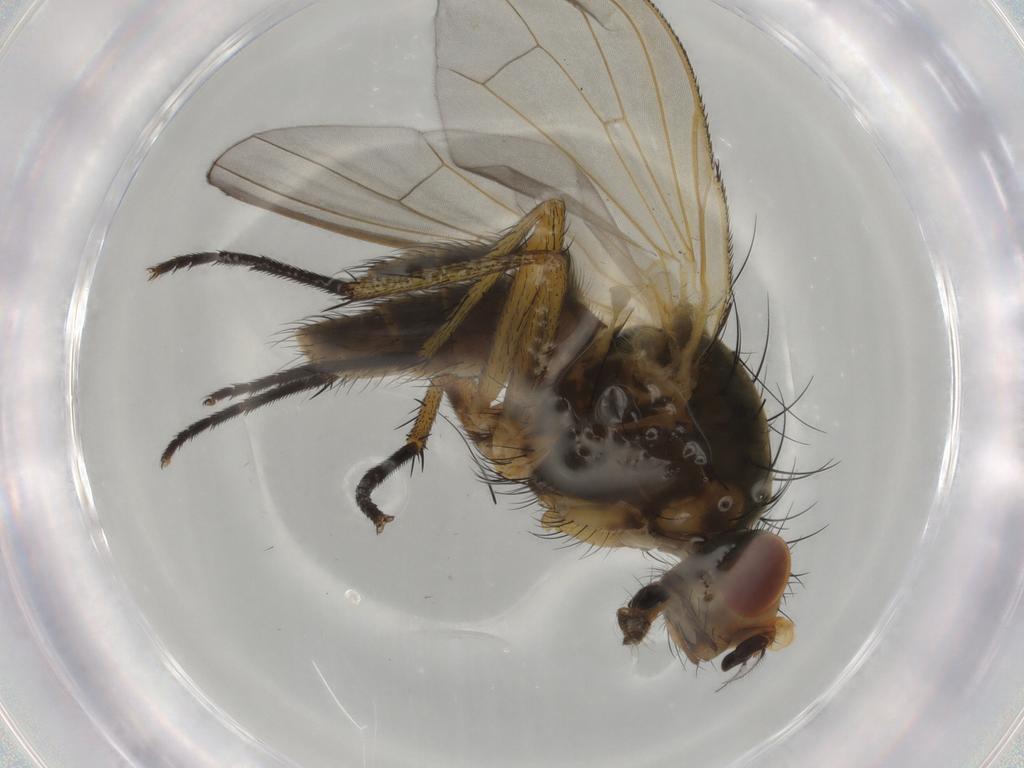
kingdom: Animalia
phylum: Arthropoda
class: Insecta
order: Diptera
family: Anthomyiidae
